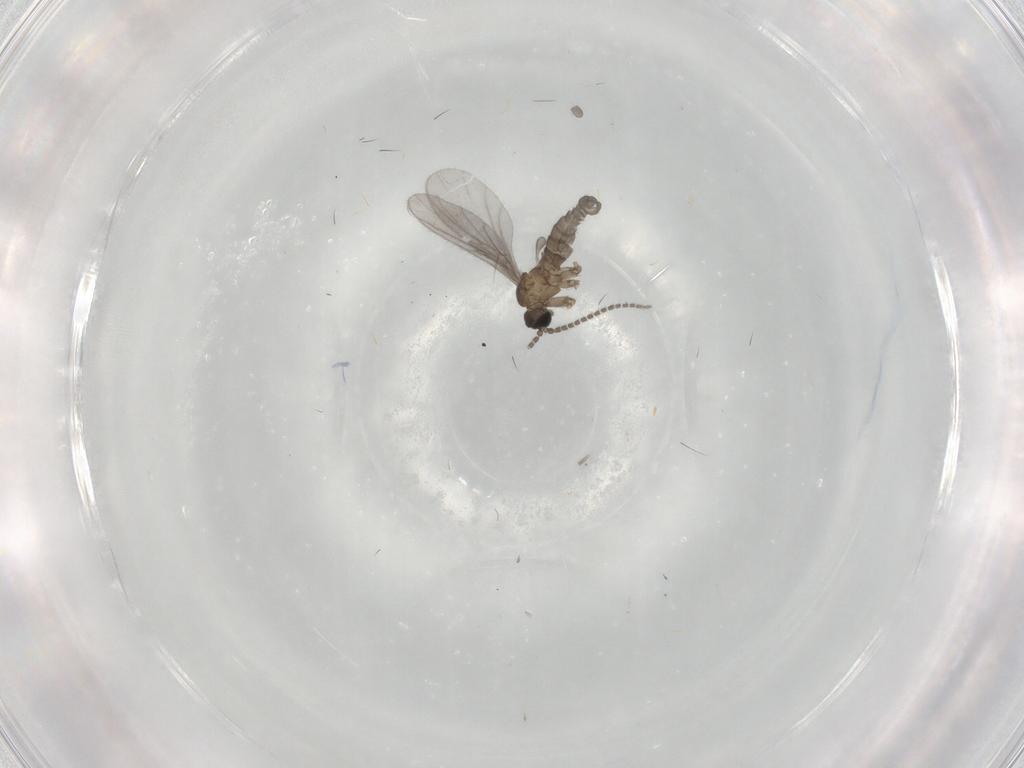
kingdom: Animalia
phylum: Arthropoda
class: Insecta
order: Diptera
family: Sciaridae
